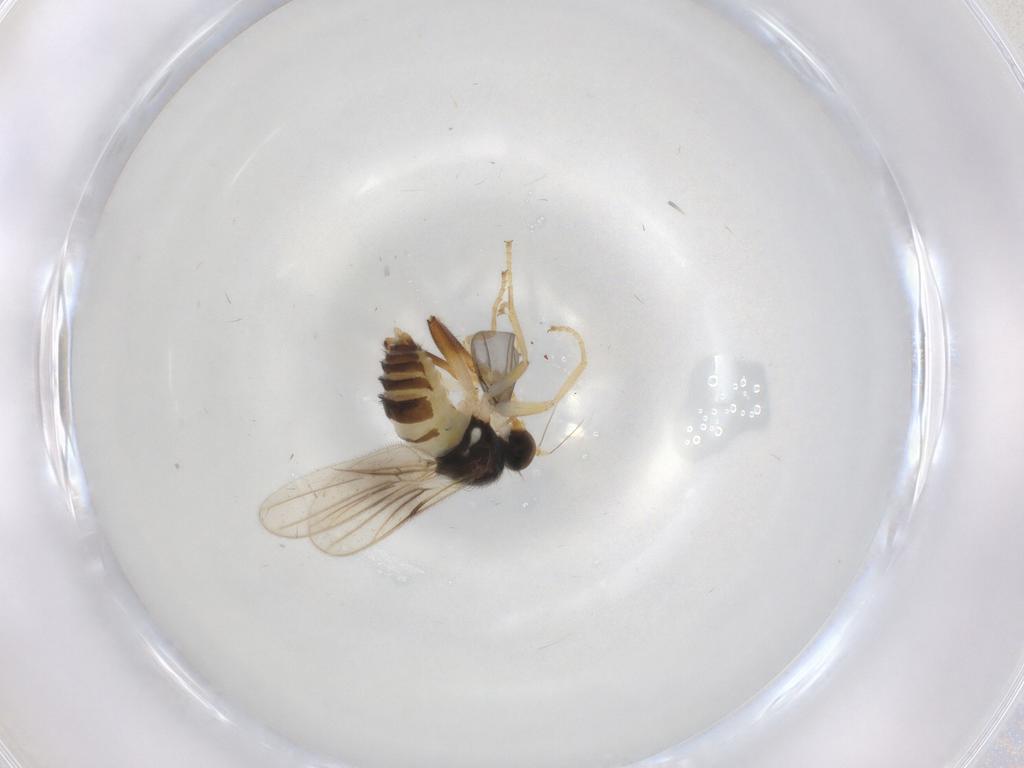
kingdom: Animalia
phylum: Arthropoda
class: Insecta
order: Diptera
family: Hybotidae
